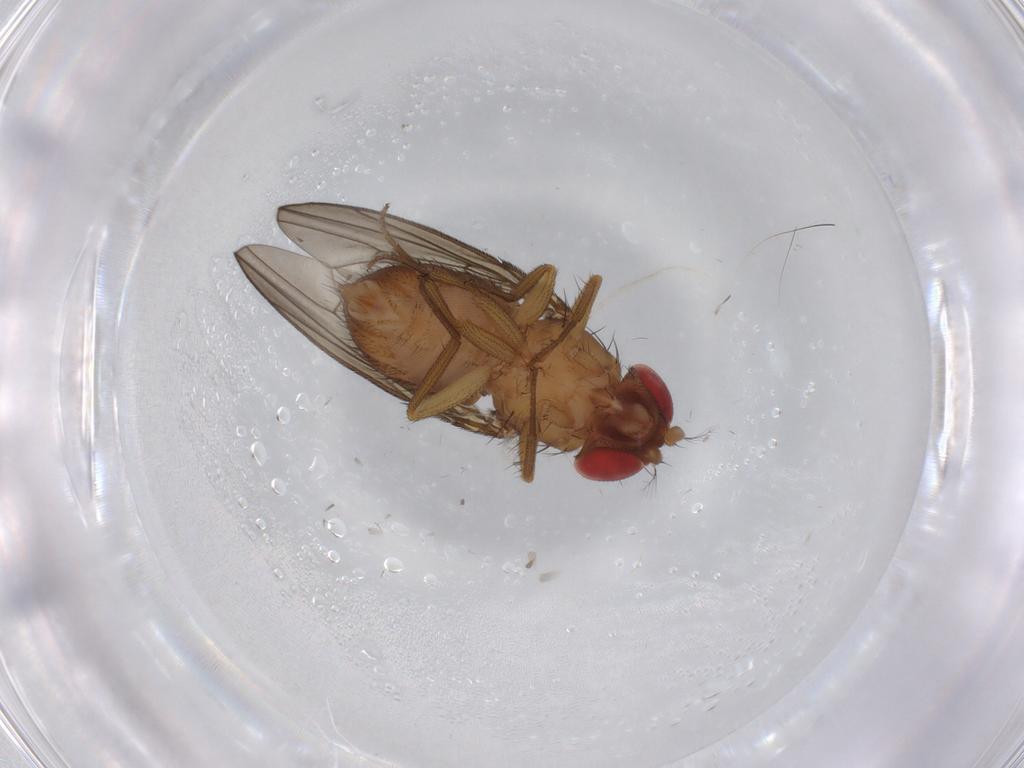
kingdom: Animalia
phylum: Arthropoda
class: Insecta
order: Diptera
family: Drosophilidae
